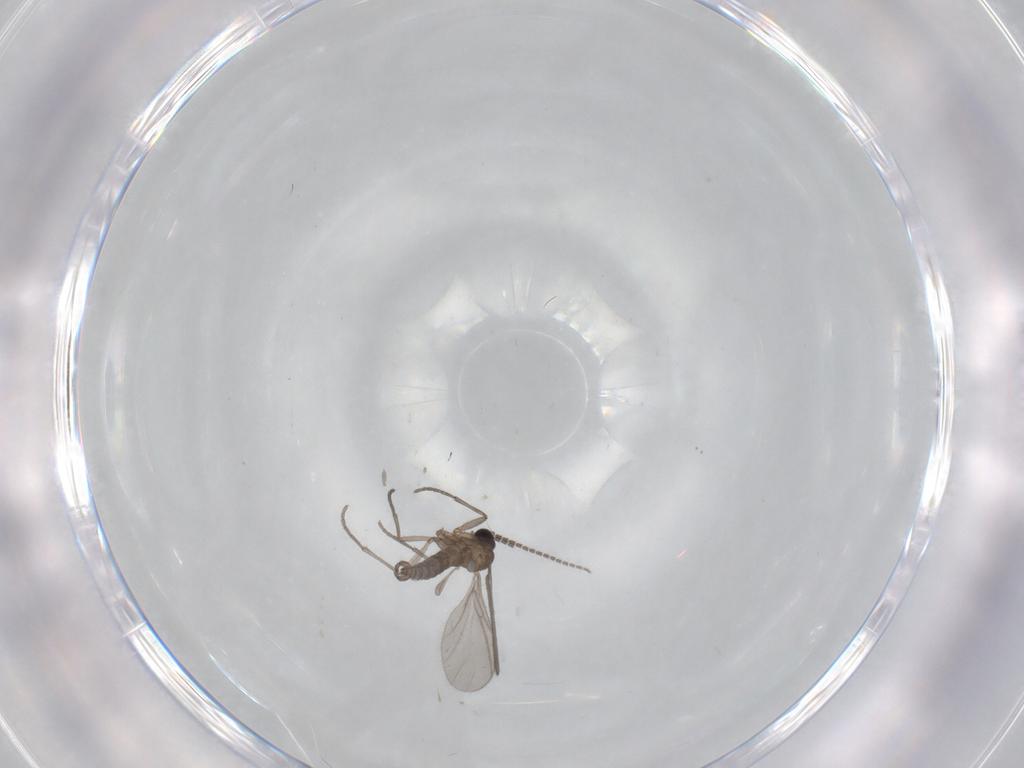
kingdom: Animalia
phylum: Arthropoda
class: Insecta
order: Diptera
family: Sciaridae
